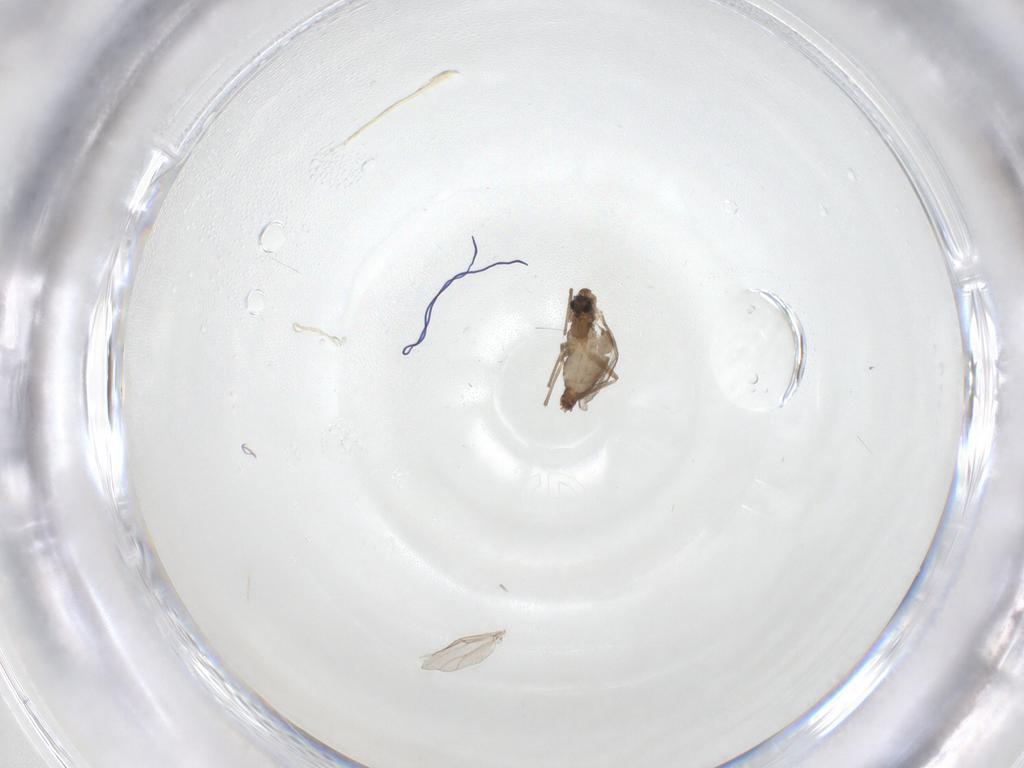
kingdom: Animalia
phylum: Arthropoda
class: Insecta
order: Diptera
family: Chironomidae
